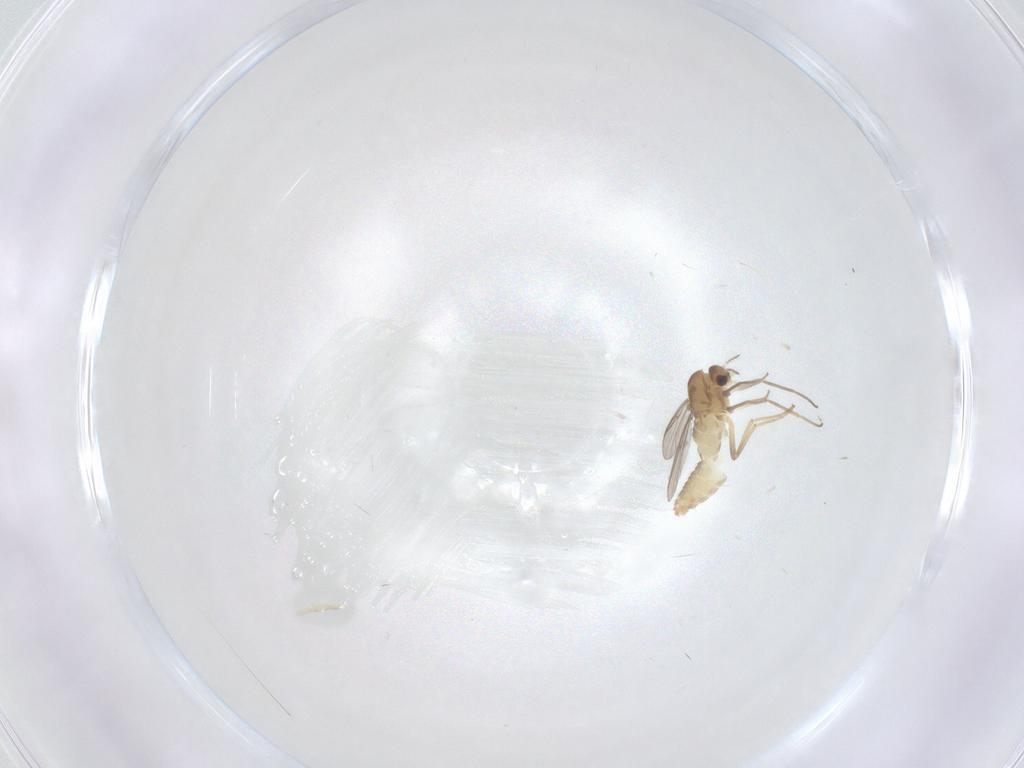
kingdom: Animalia
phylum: Arthropoda
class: Insecta
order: Diptera
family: Chironomidae
